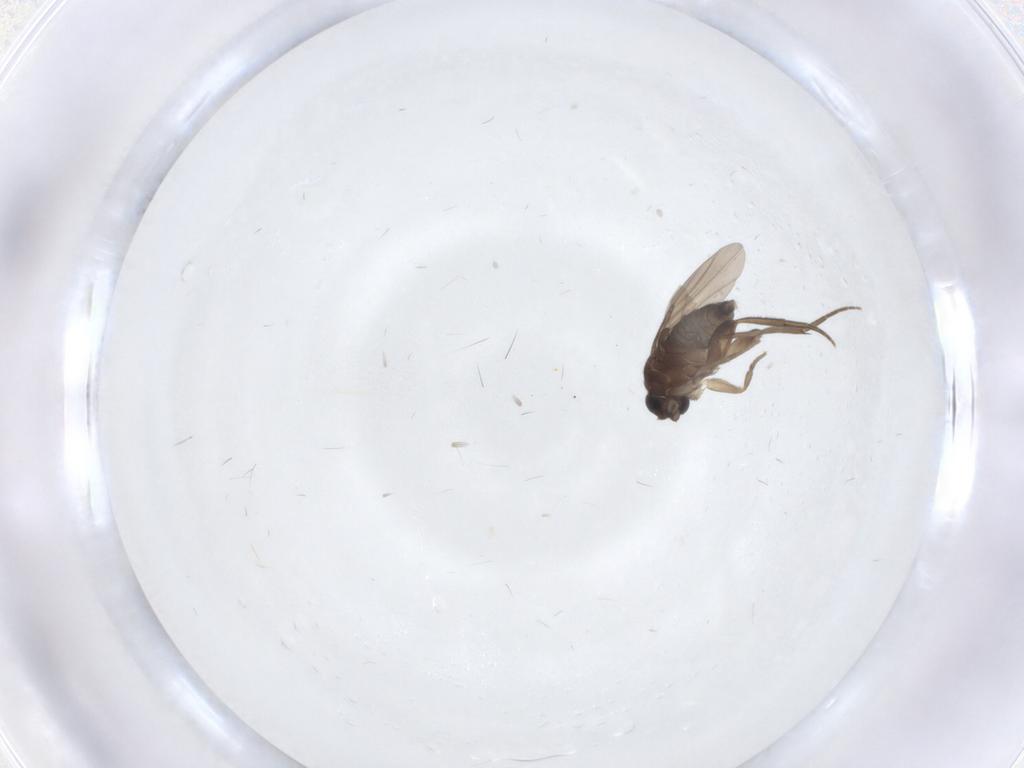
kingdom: Animalia
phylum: Arthropoda
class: Insecta
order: Diptera
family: Phoridae
